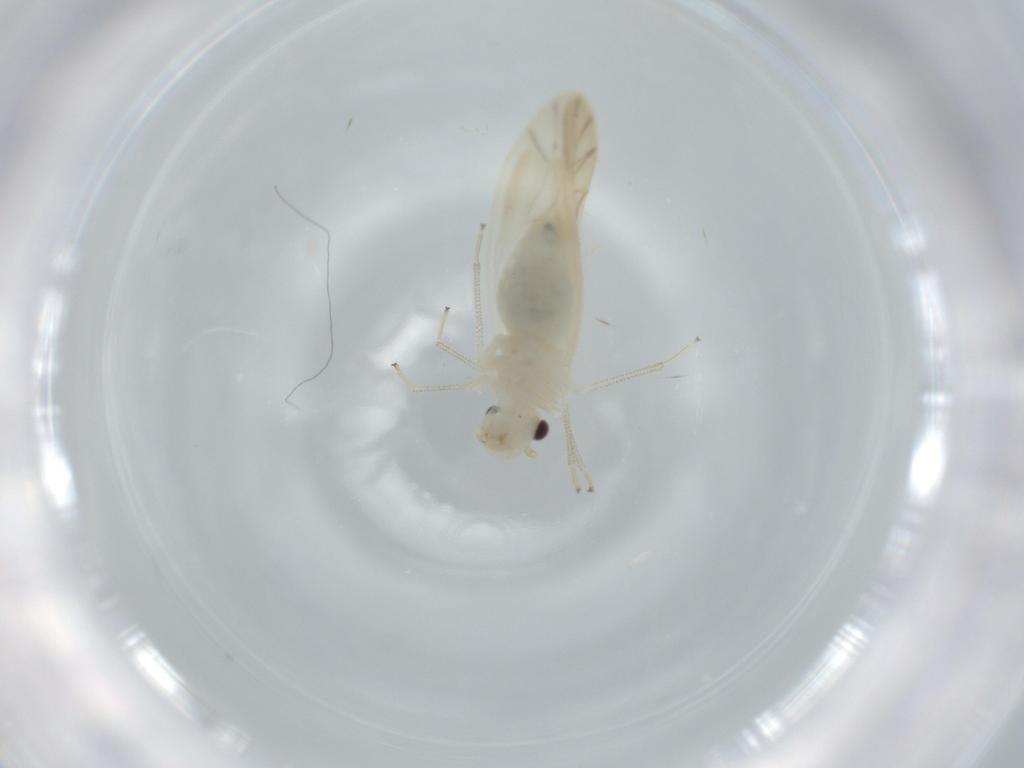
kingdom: Animalia
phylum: Arthropoda
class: Insecta
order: Psocodea
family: Caeciliusidae
